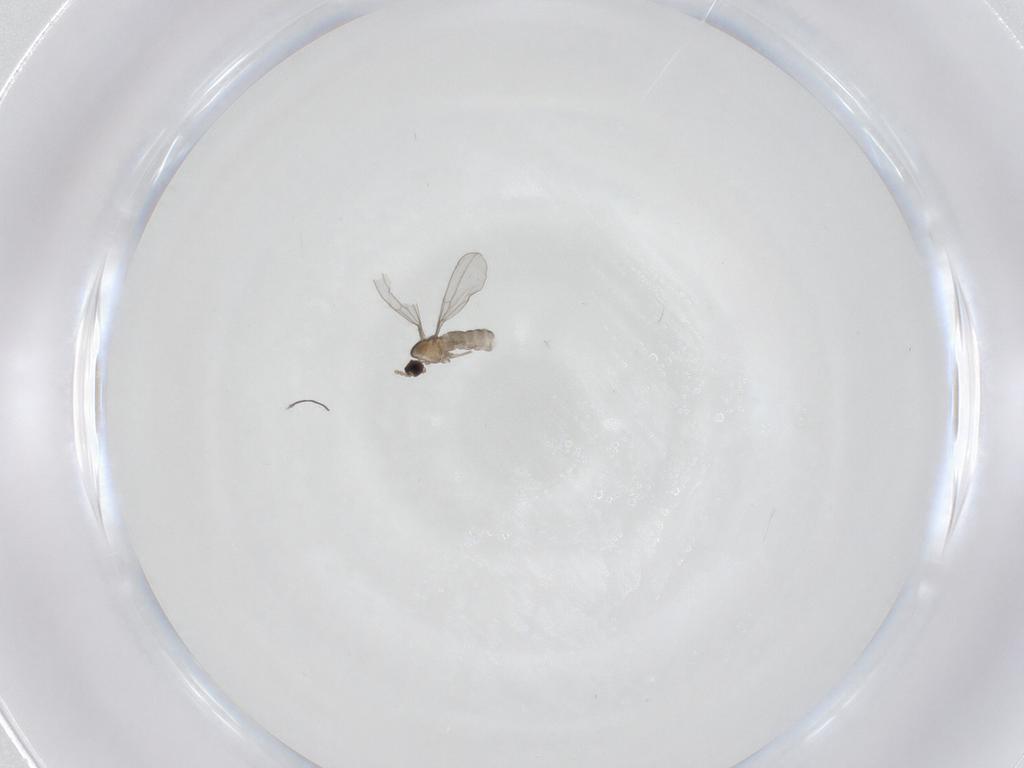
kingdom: Animalia
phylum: Arthropoda
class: Insecta
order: Diptera
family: Cecidomyiidae
